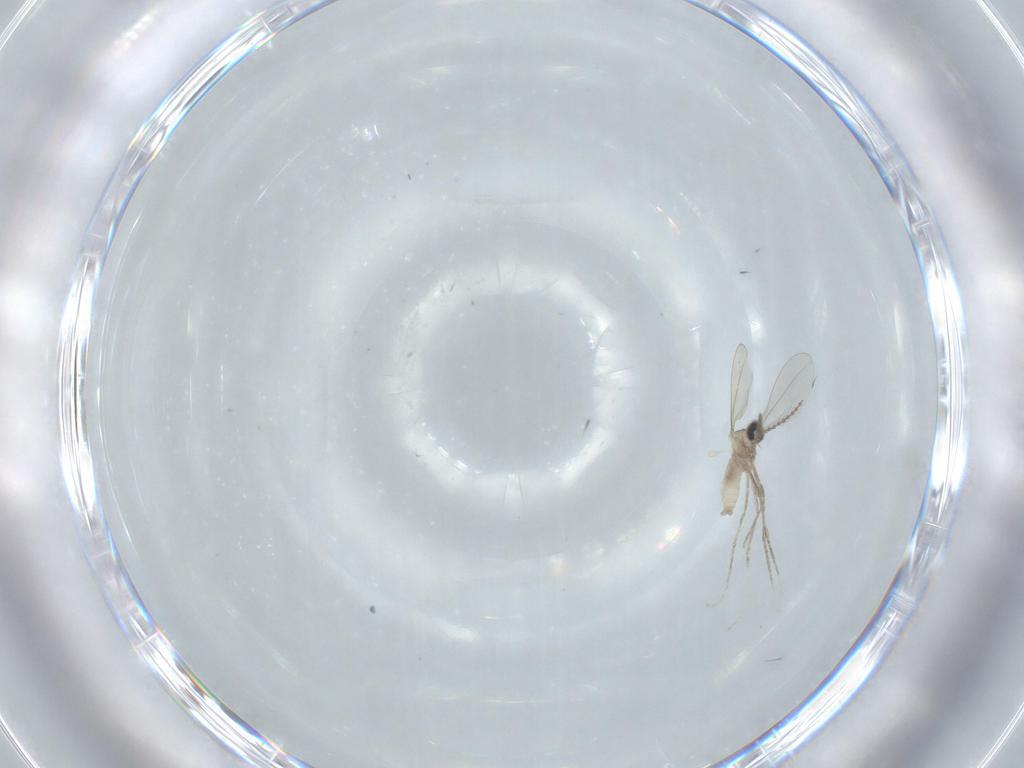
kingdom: Animalia
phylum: Arthropoda
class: Insecta
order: Diptera
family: Cecidomyiidae
